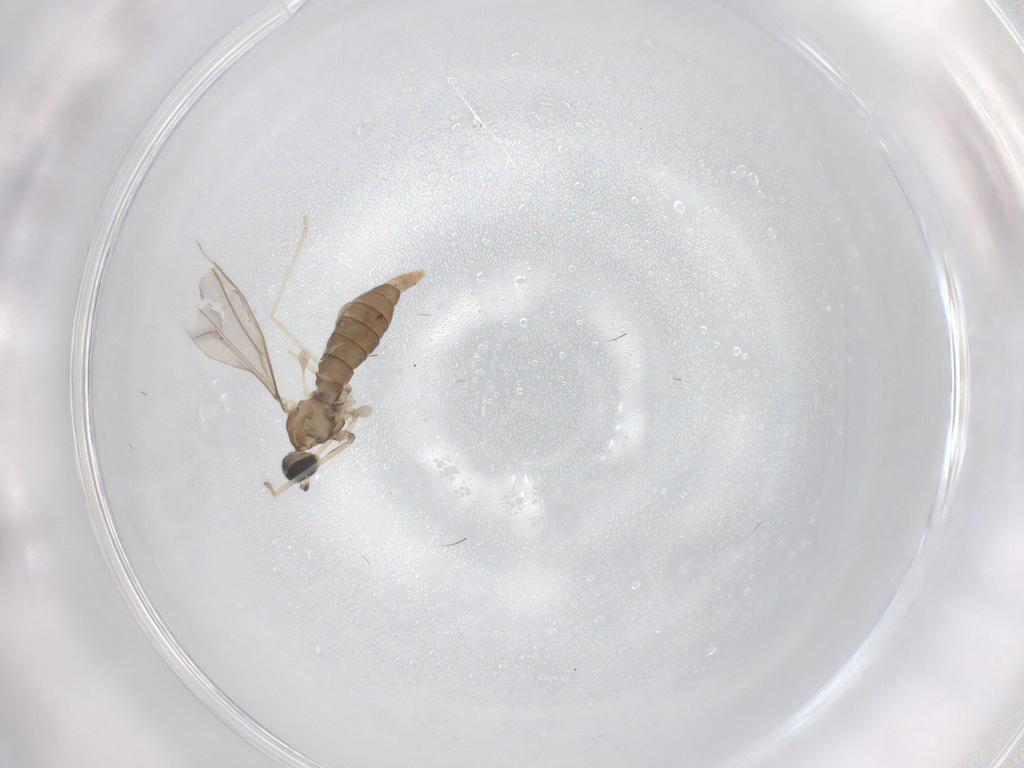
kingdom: Animalia
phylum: Arthropoda
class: Insecta
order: Diptera
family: Cecidomyiidae
